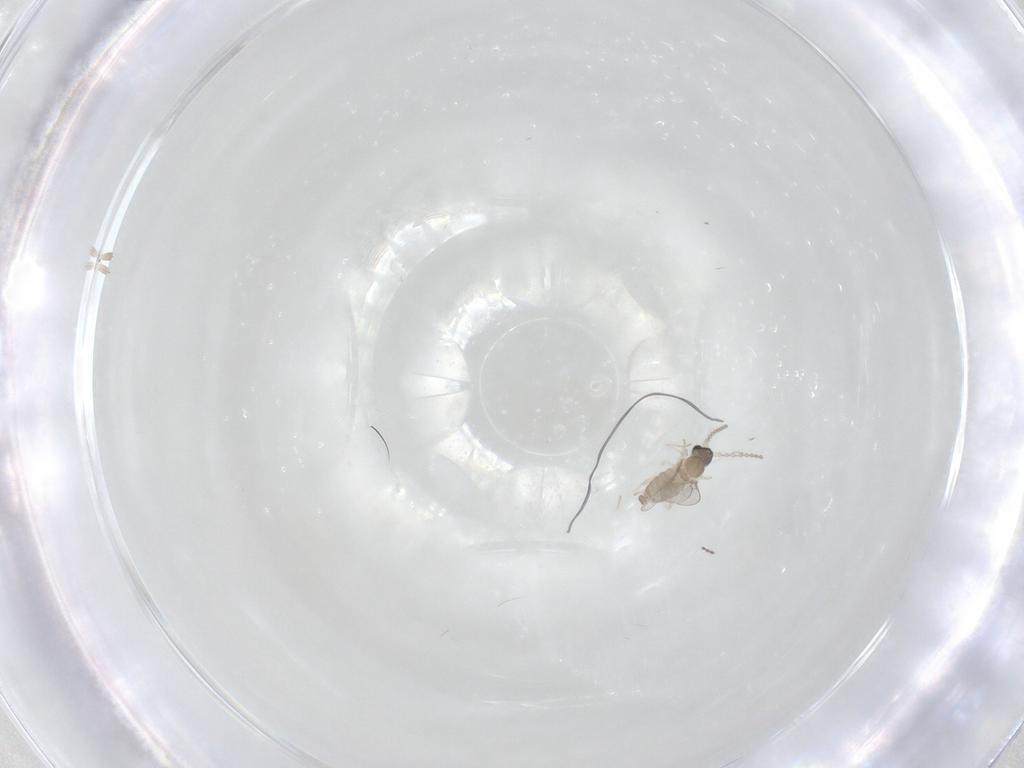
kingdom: Animalia
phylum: Arthropoda
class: Insecta
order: Diptera
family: Cecidomyiidae
